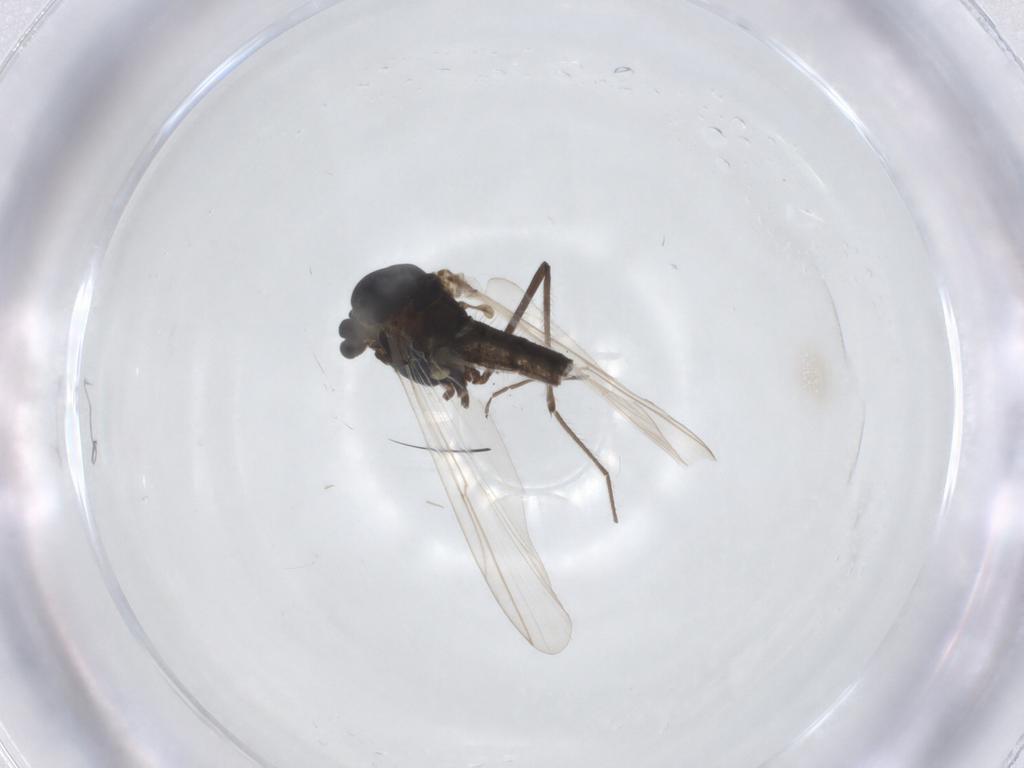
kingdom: Animalia
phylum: Arthropoda
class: Insecta
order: Diptera
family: Chironomidae
